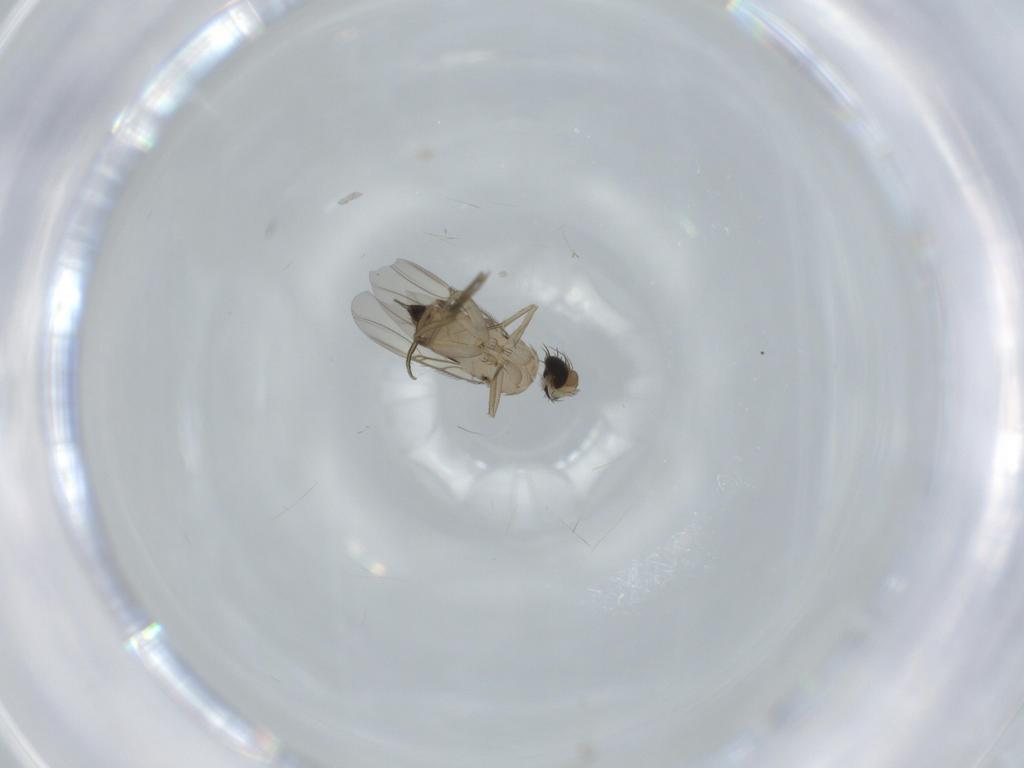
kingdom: Animalia
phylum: Arthropoda
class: Insecta
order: Diptera
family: Phoridae
